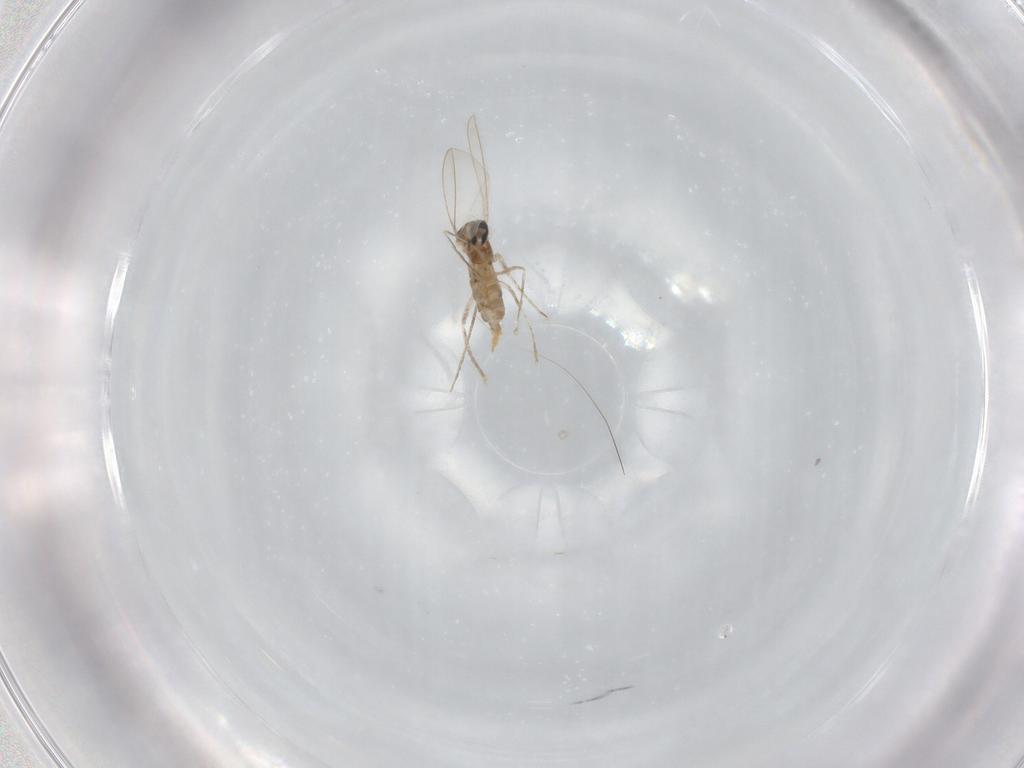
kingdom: Animalia
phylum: Arthropoda
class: Insecta
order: Diptera
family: Cecidomyiidae
